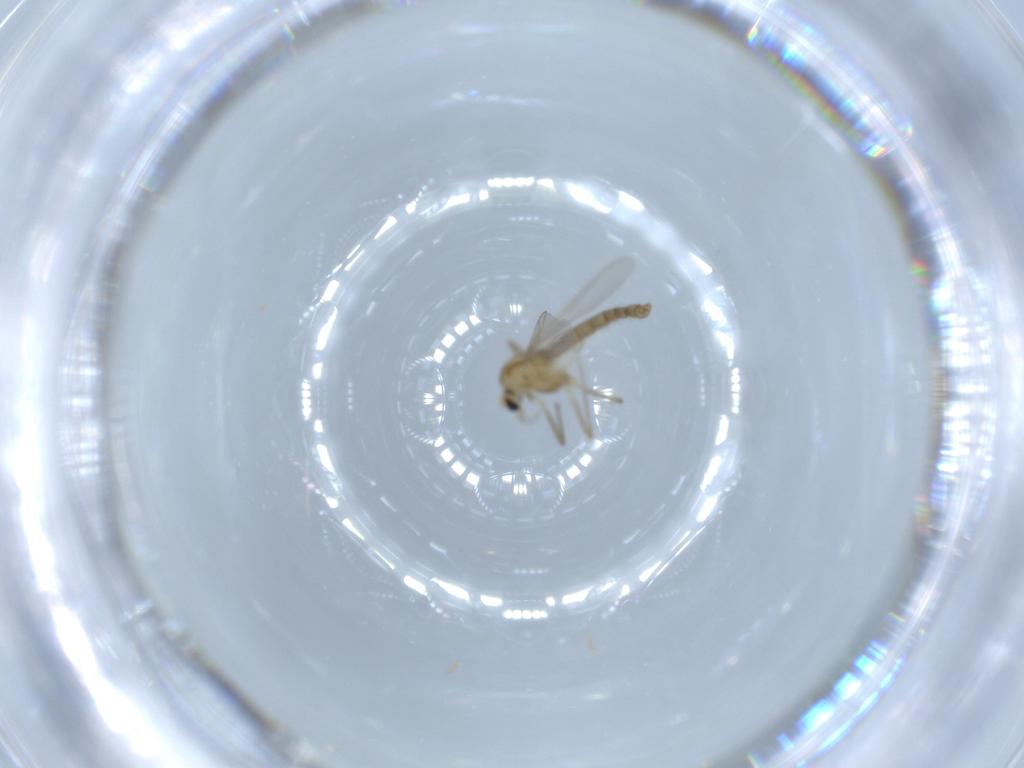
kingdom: Animalia
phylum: Arthropoda
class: Insecta
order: Diptera
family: Chironomidae
